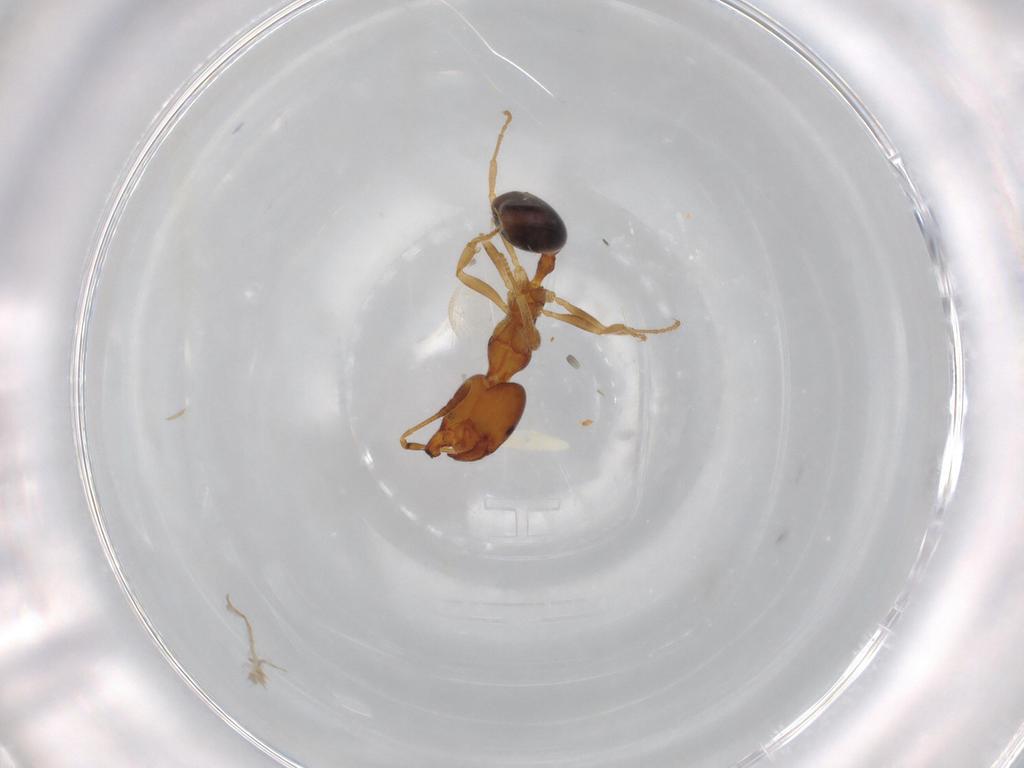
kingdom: Animalia
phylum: Arthropoda
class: Insecta
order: Hymenoptera
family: Formicidae
